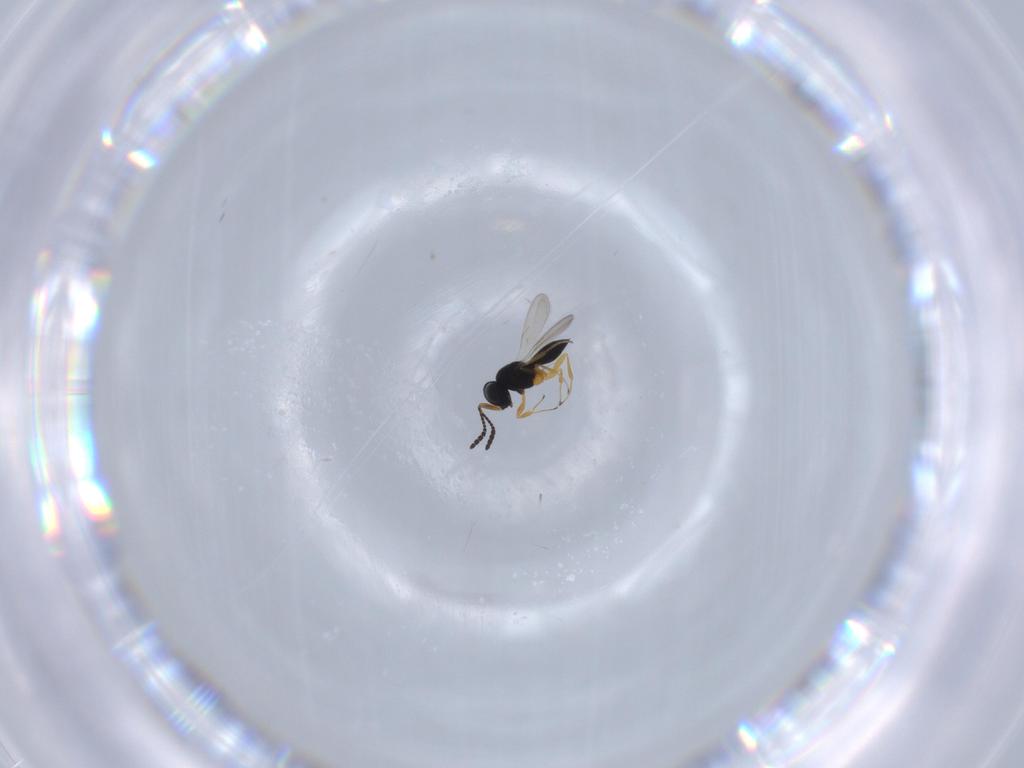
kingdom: Animalia
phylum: Arthropoda
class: Insecta
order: Hymenoptera
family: Scelionidae
